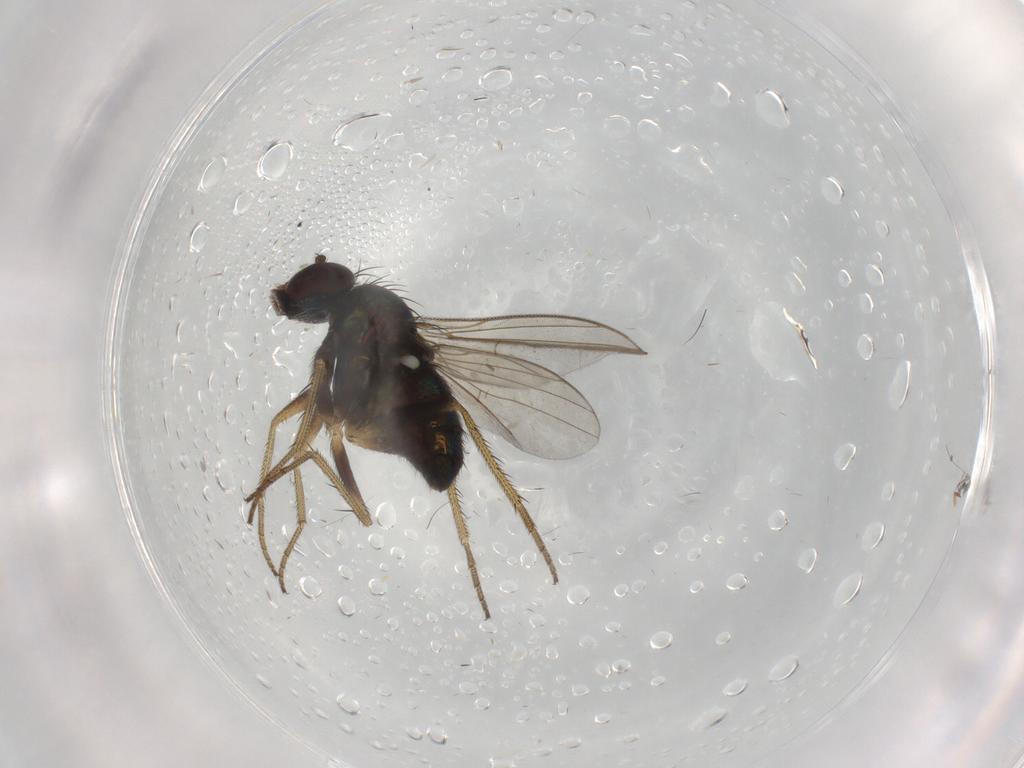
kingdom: Animalia
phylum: Arthropoda
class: Insecta
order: Diptera
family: Dolichopodidae
